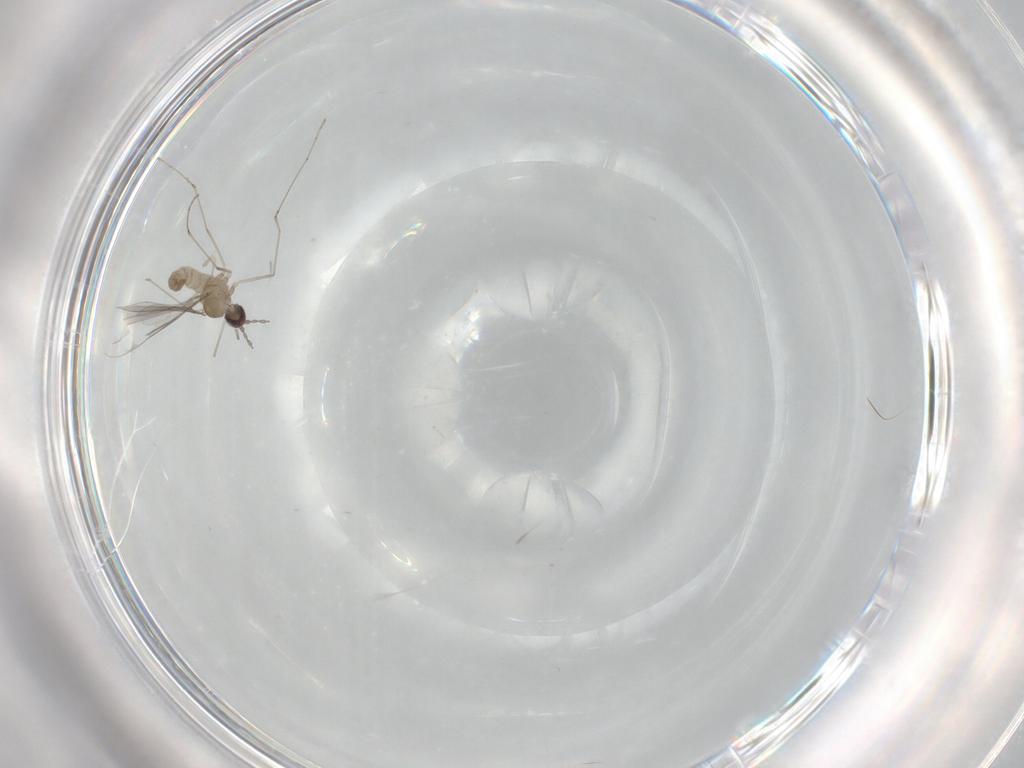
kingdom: Animalia
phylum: Arthropoda
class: Insecta
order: Diptera
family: Cecidomyiidae
